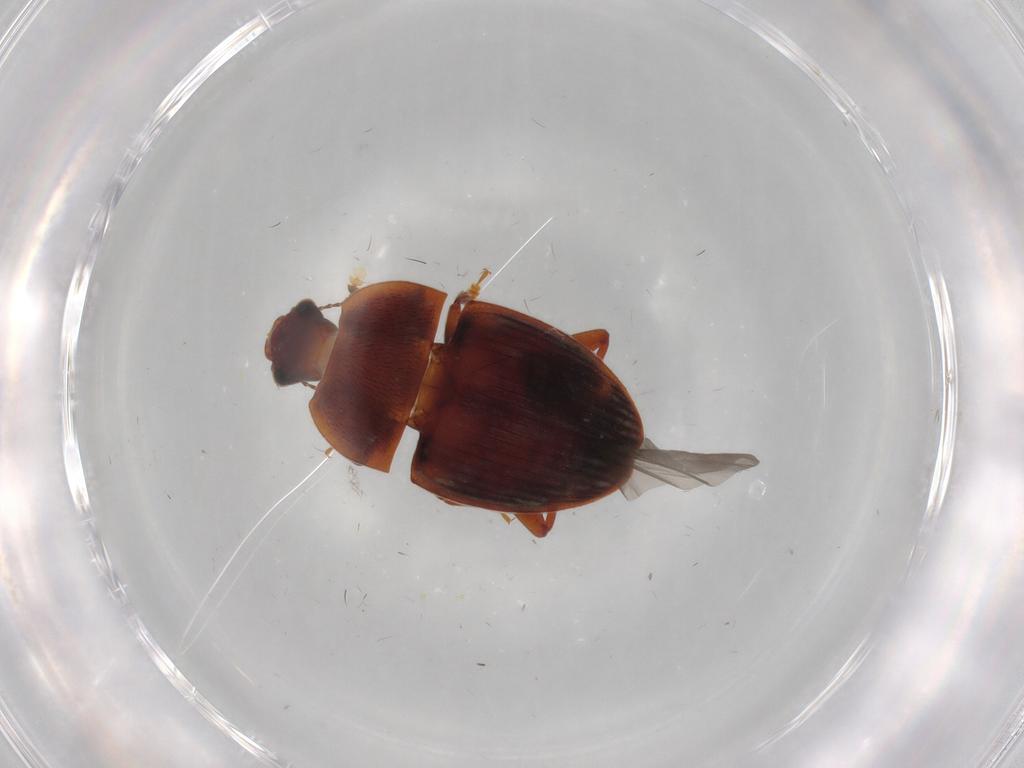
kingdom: Animalia
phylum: Arthropoda
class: Insecta
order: Coleoptera
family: Nitidulidae
